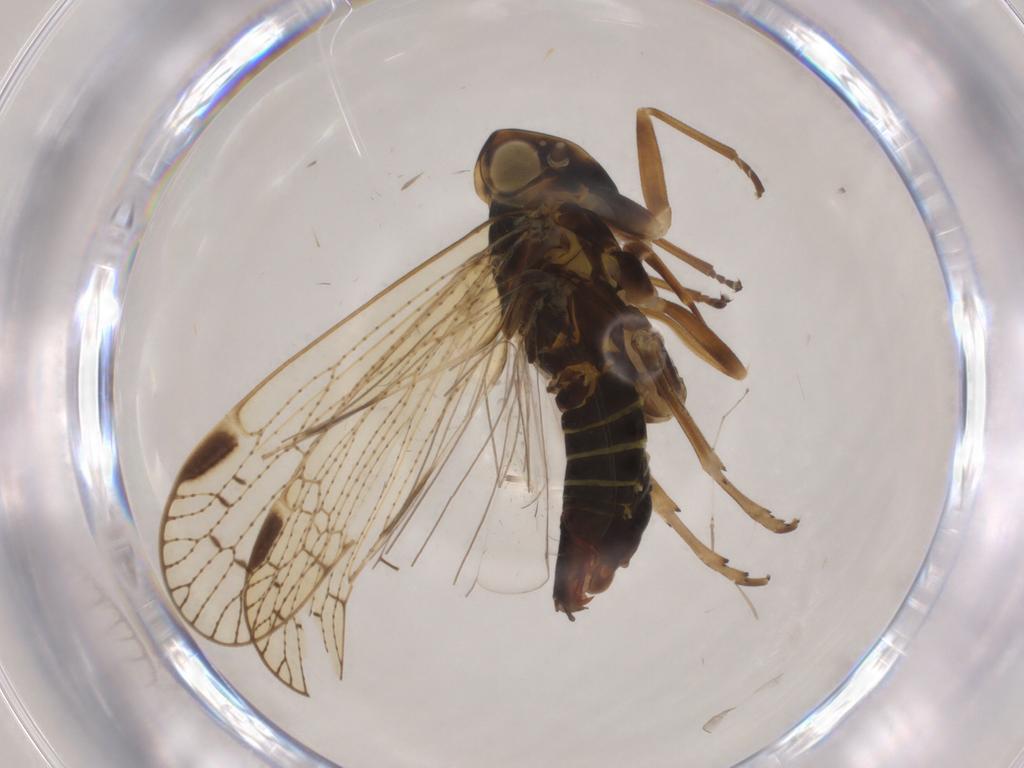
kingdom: Animalia
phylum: Arthropoda
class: Insecta
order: Hemiptera
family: Cixiidae
